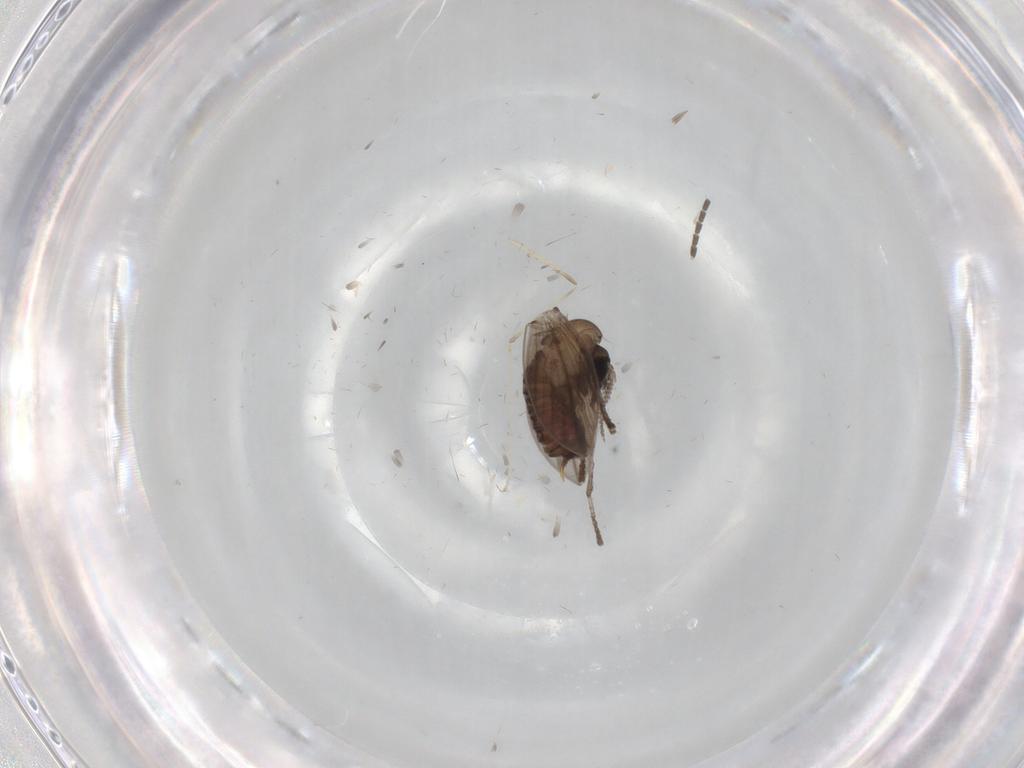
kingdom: Animalia
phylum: Arthropoda
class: Insecta
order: Diptera
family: Psychodidae
